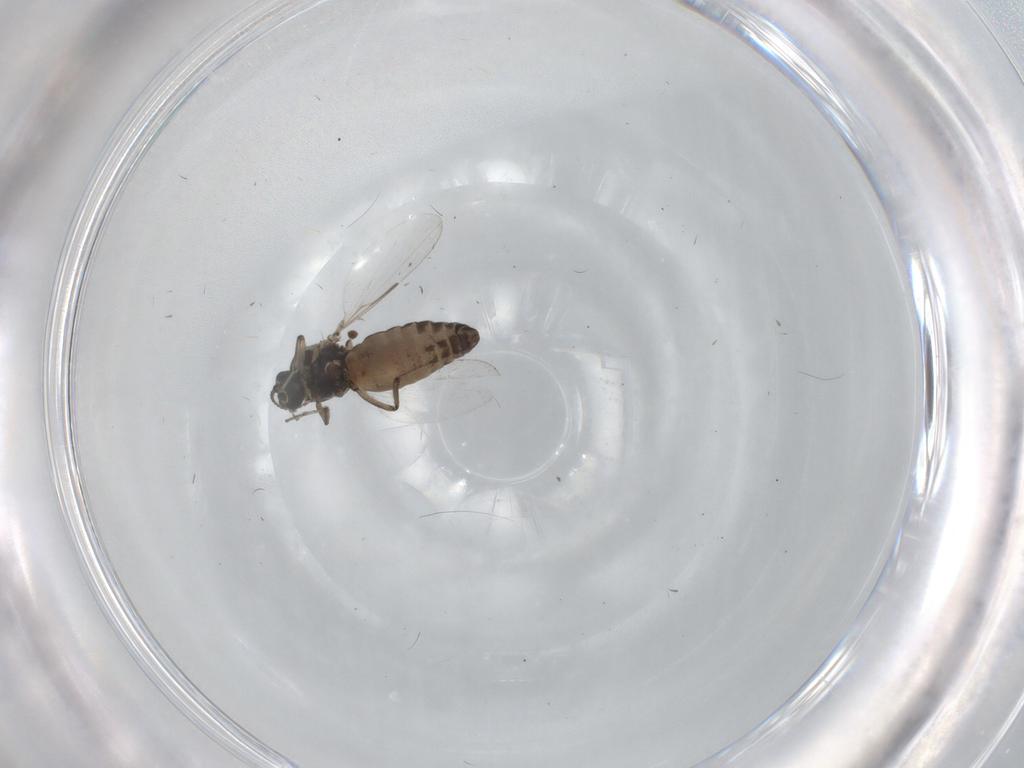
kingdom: Animalia
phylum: Arthropoda
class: Insecta
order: Diptera
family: Ceratopogonidae
